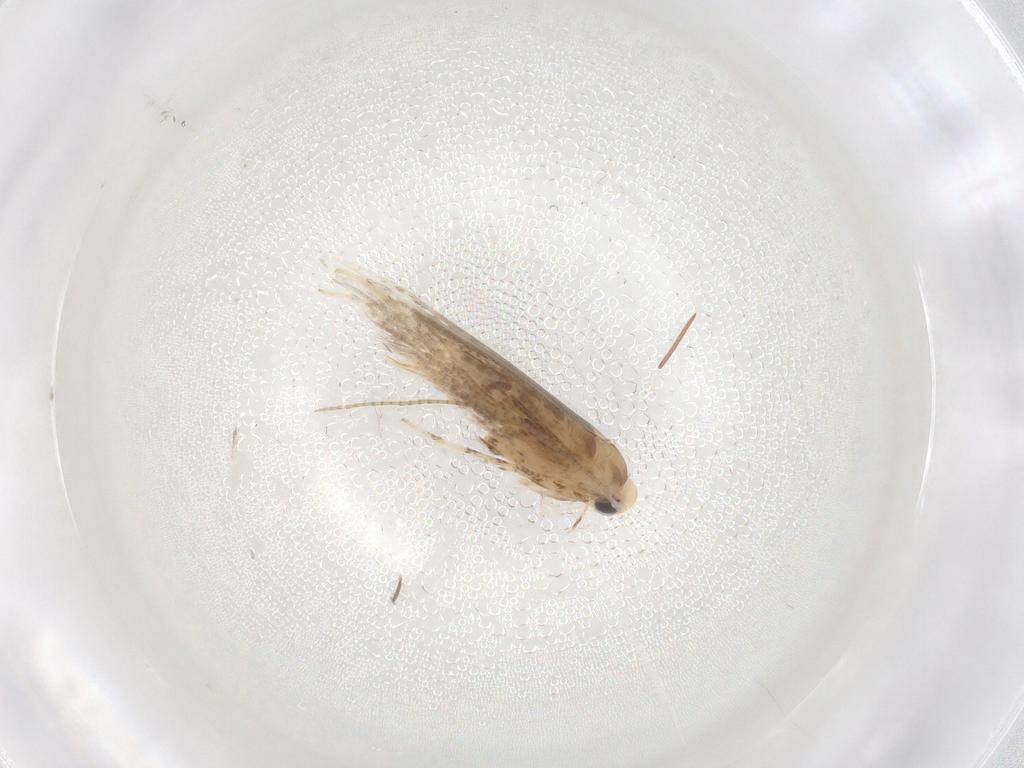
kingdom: Animalia
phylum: Arthropoda
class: Insecta
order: Lepidoptera
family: Gracillariidae
